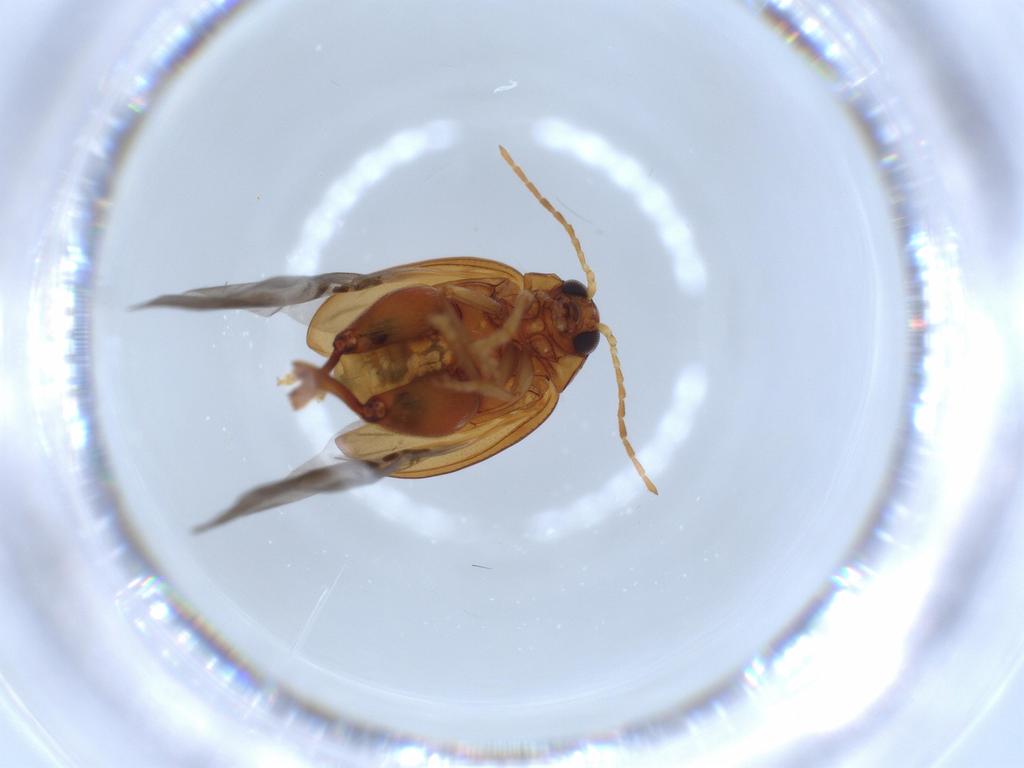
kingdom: Animalia
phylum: Arthropoda
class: Insecta
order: Coleoptera
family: Chrysomelidae
